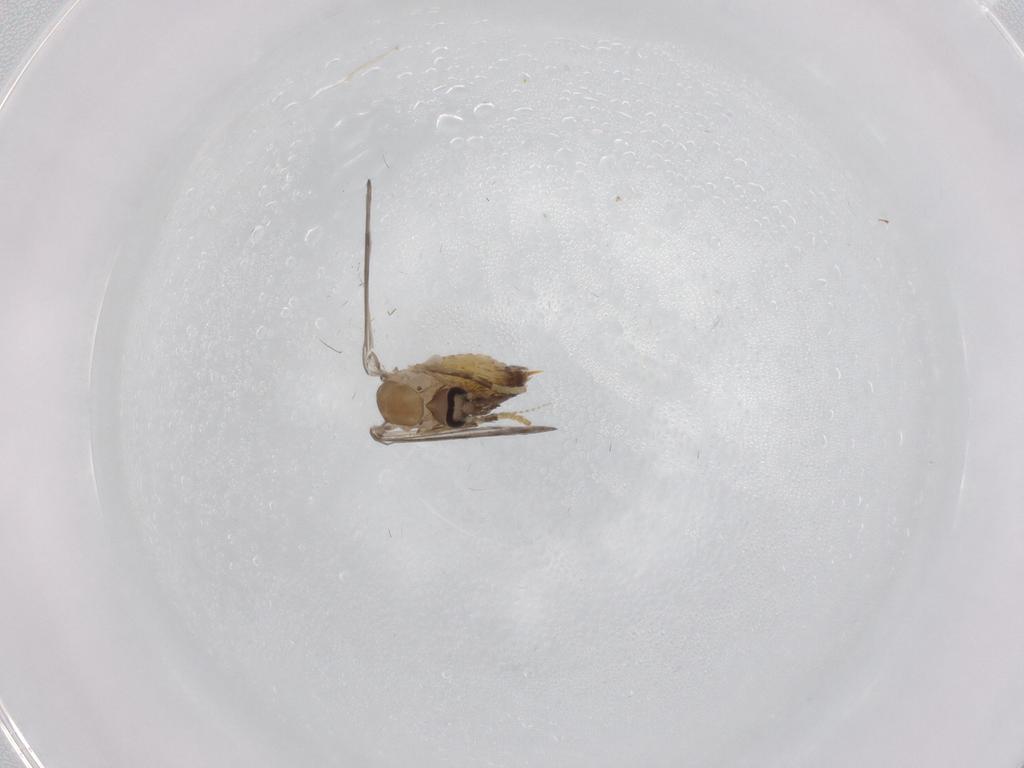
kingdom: Animalia
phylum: Arthropoda
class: Insecta
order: Diptera
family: Psychodidae
